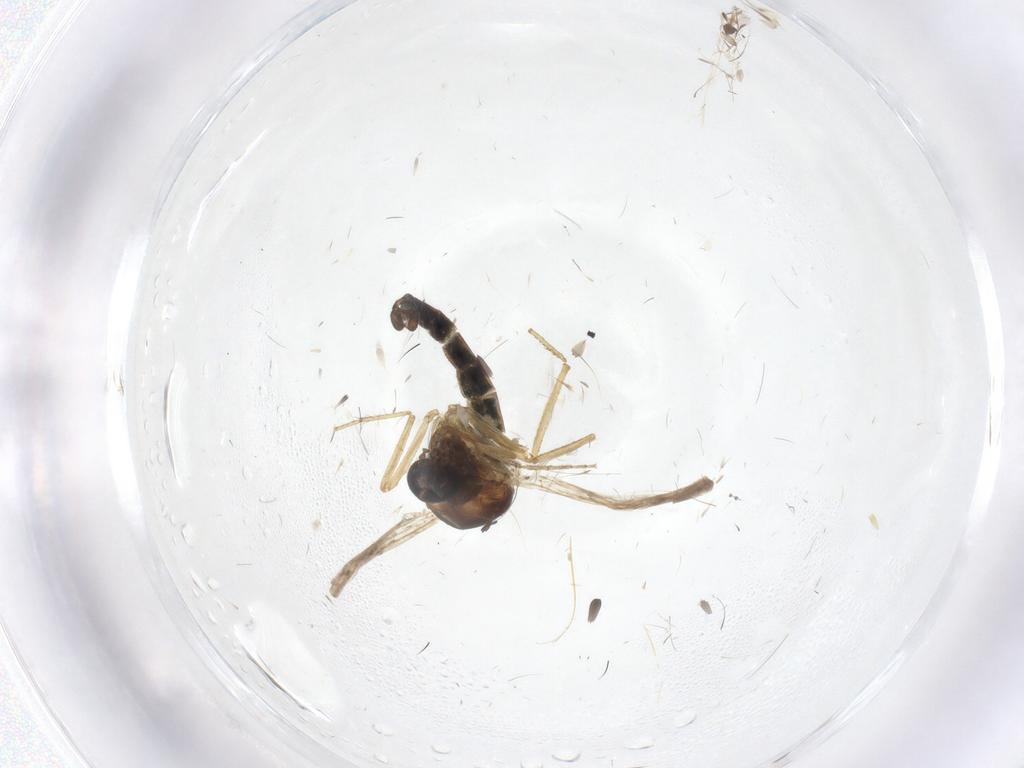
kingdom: Animalia
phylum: Arthropoda
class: Insecta
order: Diptera
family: Ceratopogonidae
